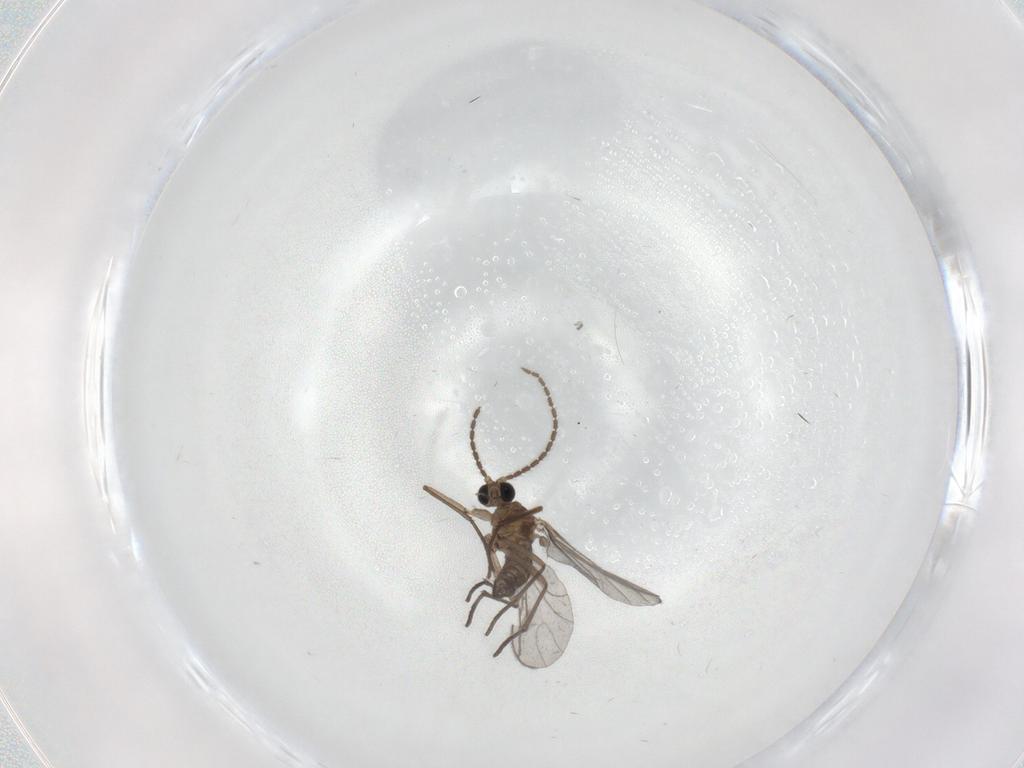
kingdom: Animalia
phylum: Arthropoda
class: Insecta
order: Diptera
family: Sciaridae
